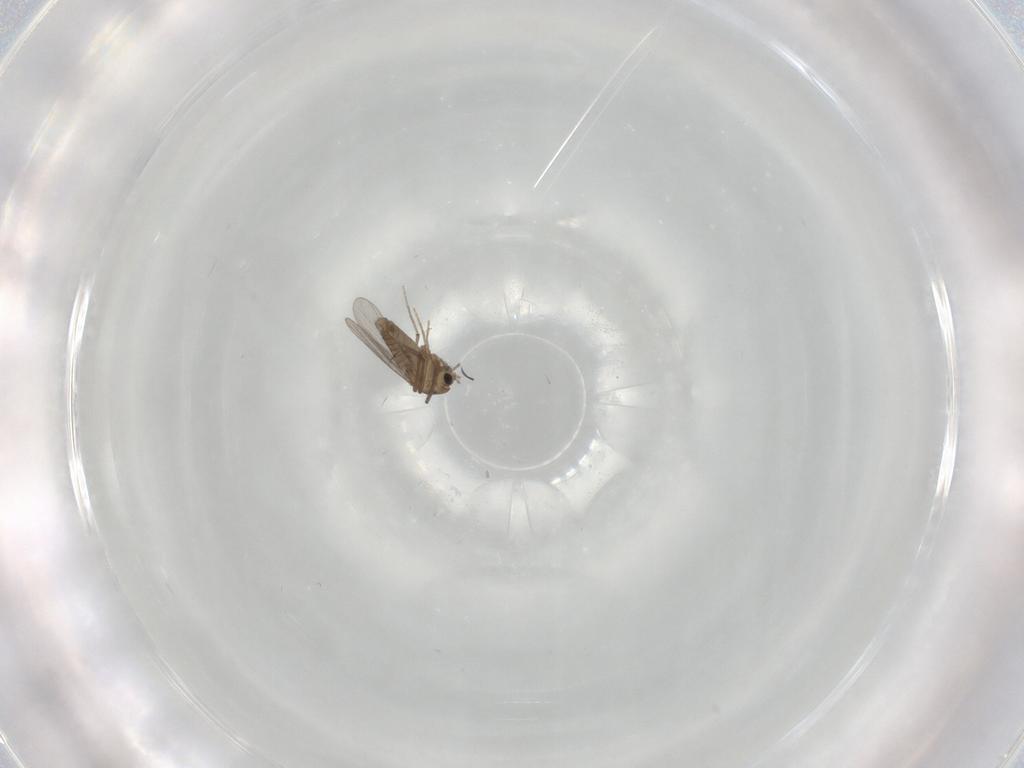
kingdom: Animalia
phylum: Arthropoda
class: Insecta
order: Diptera
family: Chironomidae
